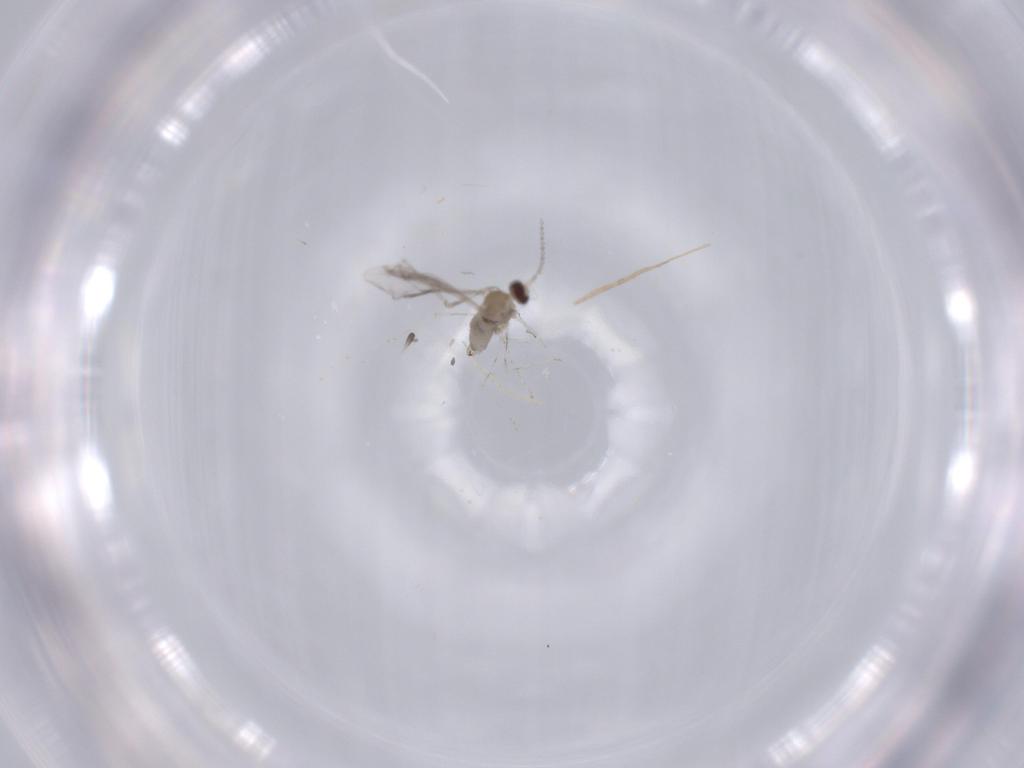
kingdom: Animalia
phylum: Arthropoda
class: Insecta
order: Diptera
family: Cecidomyiidae
